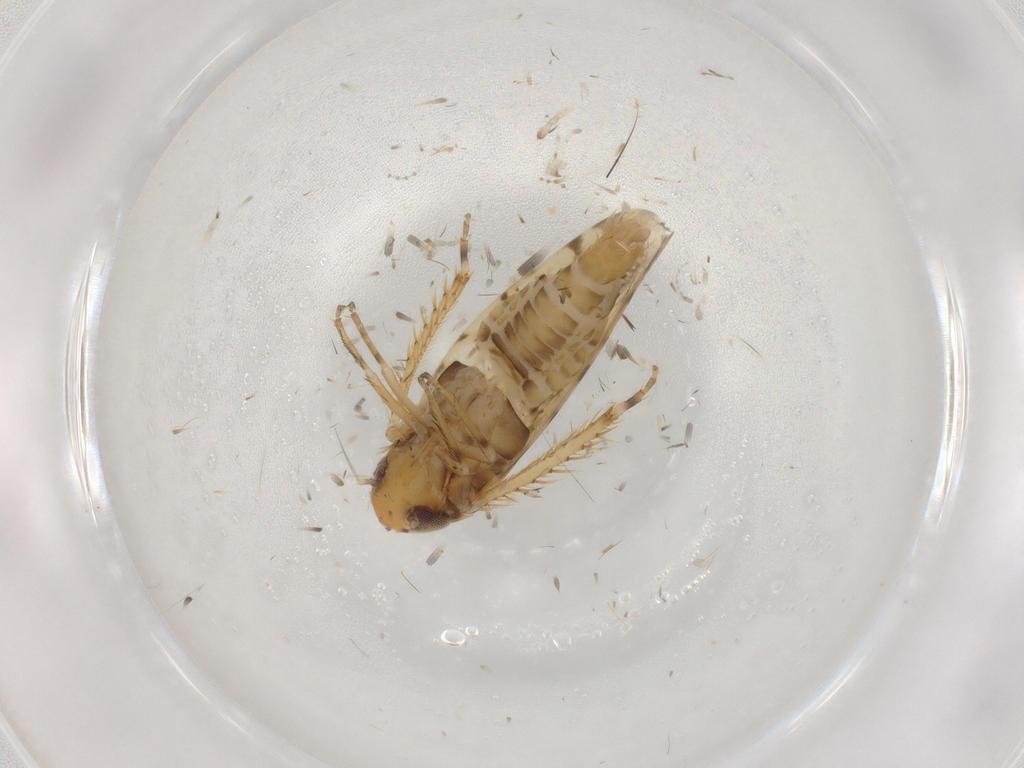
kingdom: Animalia
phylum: Arthropoda
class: Insecta
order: Hemiptera
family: Cicadellidae
